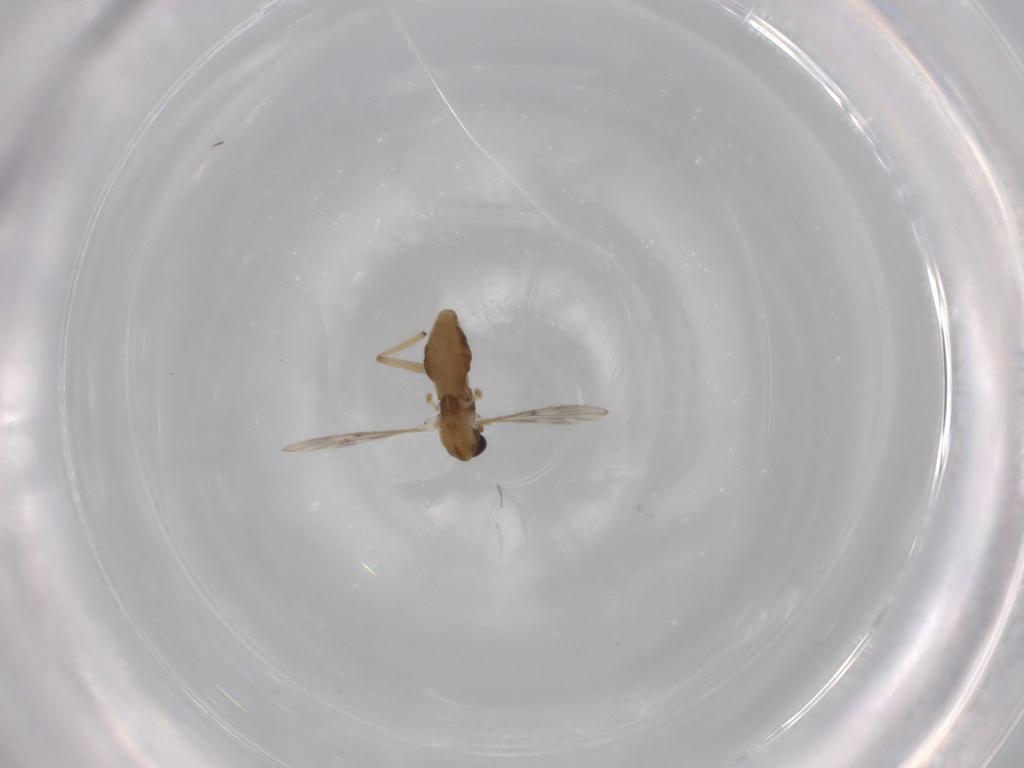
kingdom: Animalia
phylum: Arthropoda
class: Insecta
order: Diptera
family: Chironomidae
